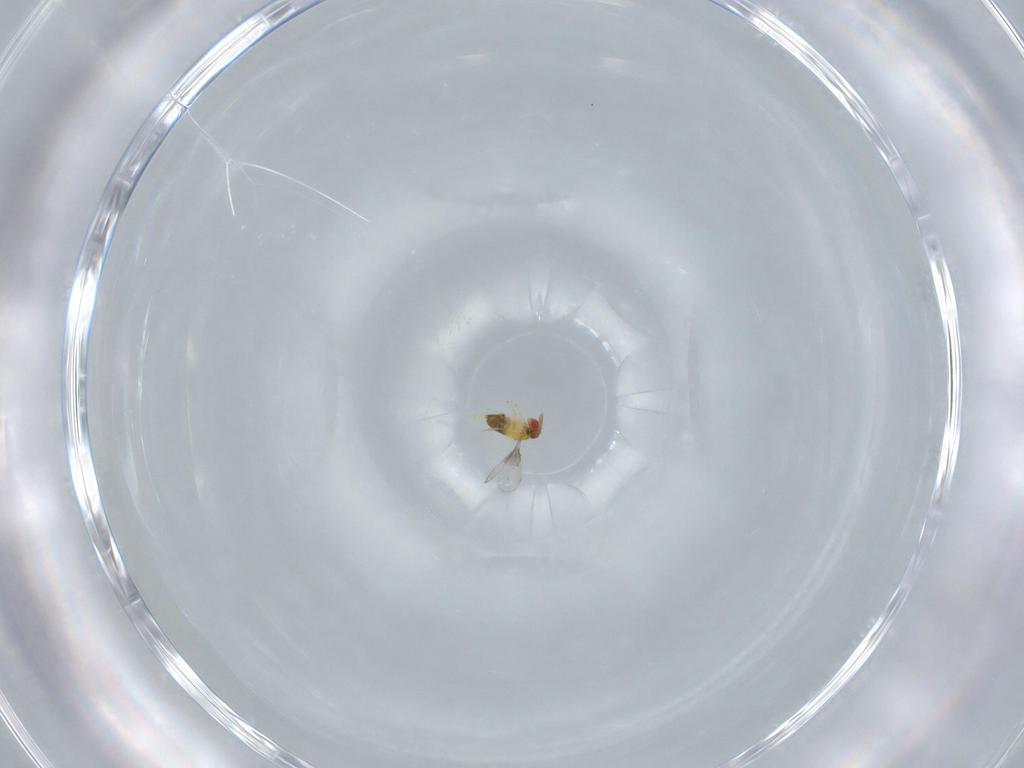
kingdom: Animalia
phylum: Arthropoda
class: Insecta
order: Hymenoptera
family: Trichogrammatidae
